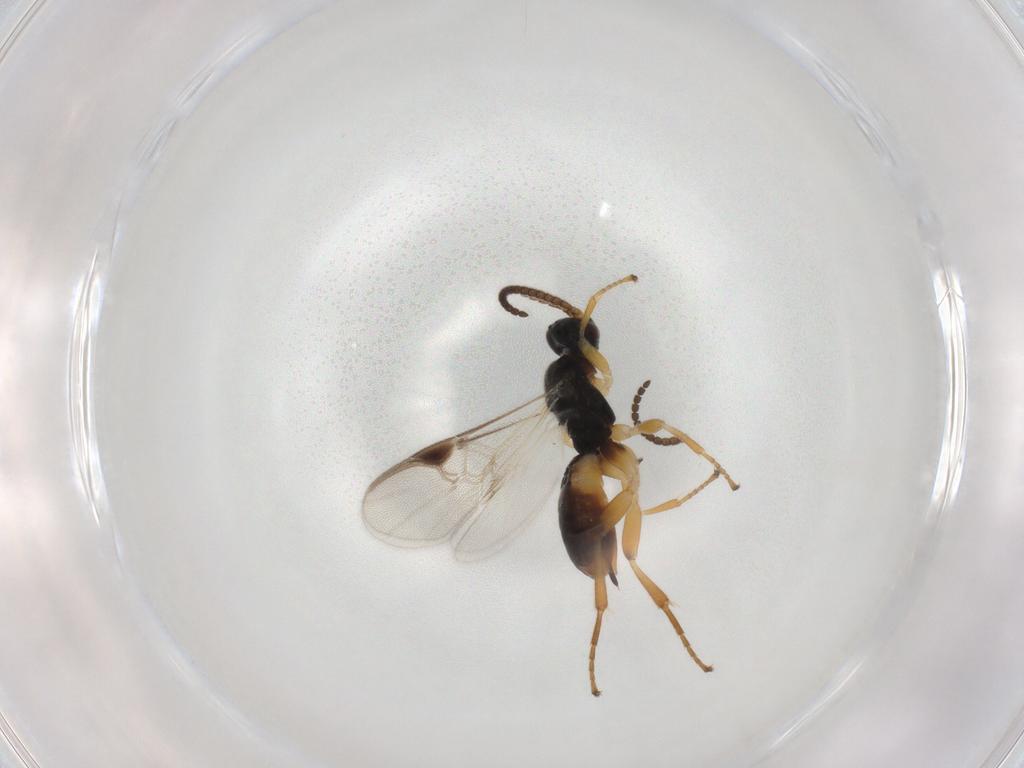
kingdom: Animalia
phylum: Arthropoda
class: Insecta
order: Hymenoptera
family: Braconidae
